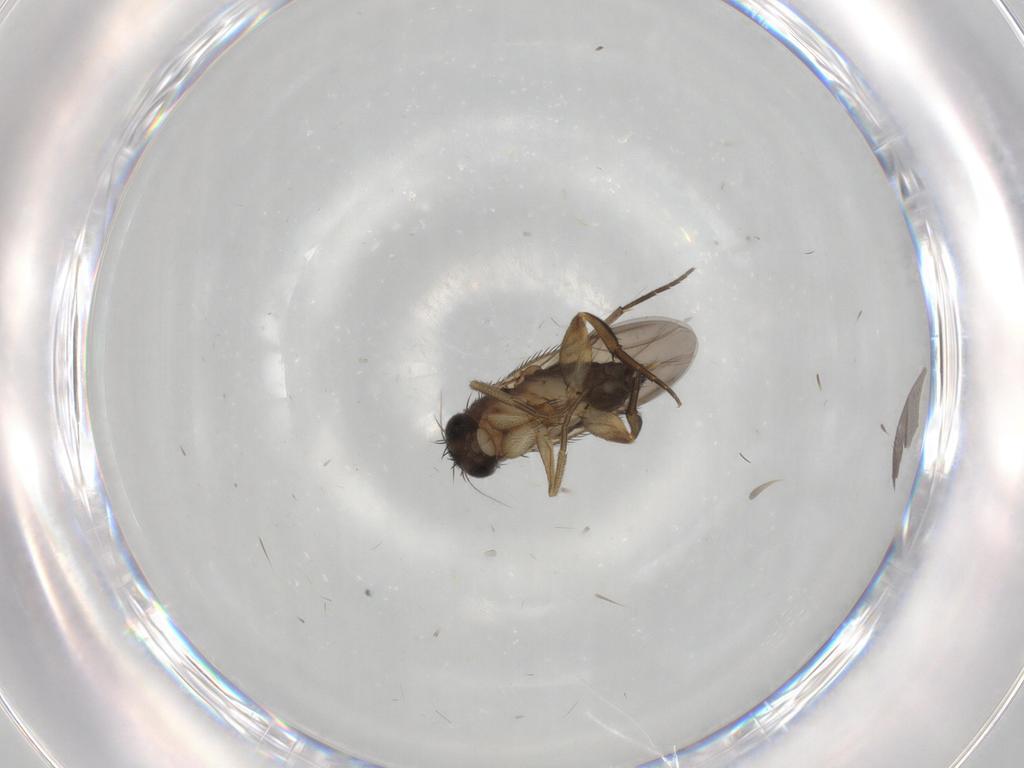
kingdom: Animalia
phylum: Arthropoda
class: Insecta
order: Diptera
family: Phoridae
